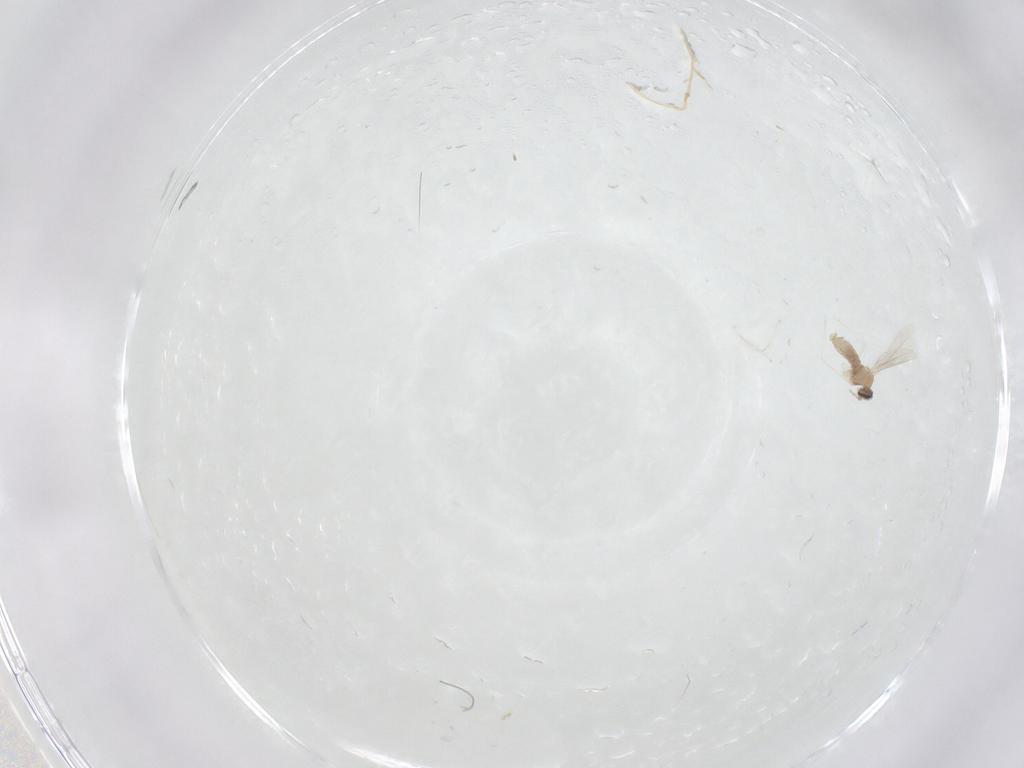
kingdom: Animalia
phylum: Arthropoda
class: Insecta
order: Diptera
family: Cecidomyiidae
